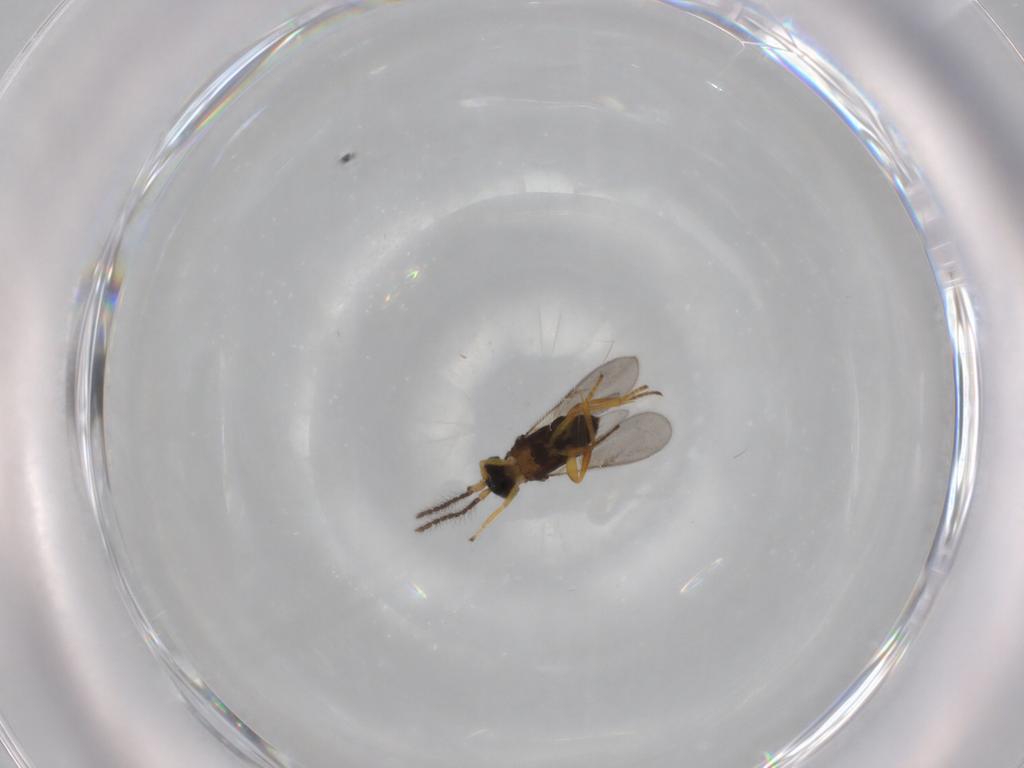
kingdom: Animalia
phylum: Arthropoda
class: Insecta
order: Hymenoptera
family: Encyrtidae
